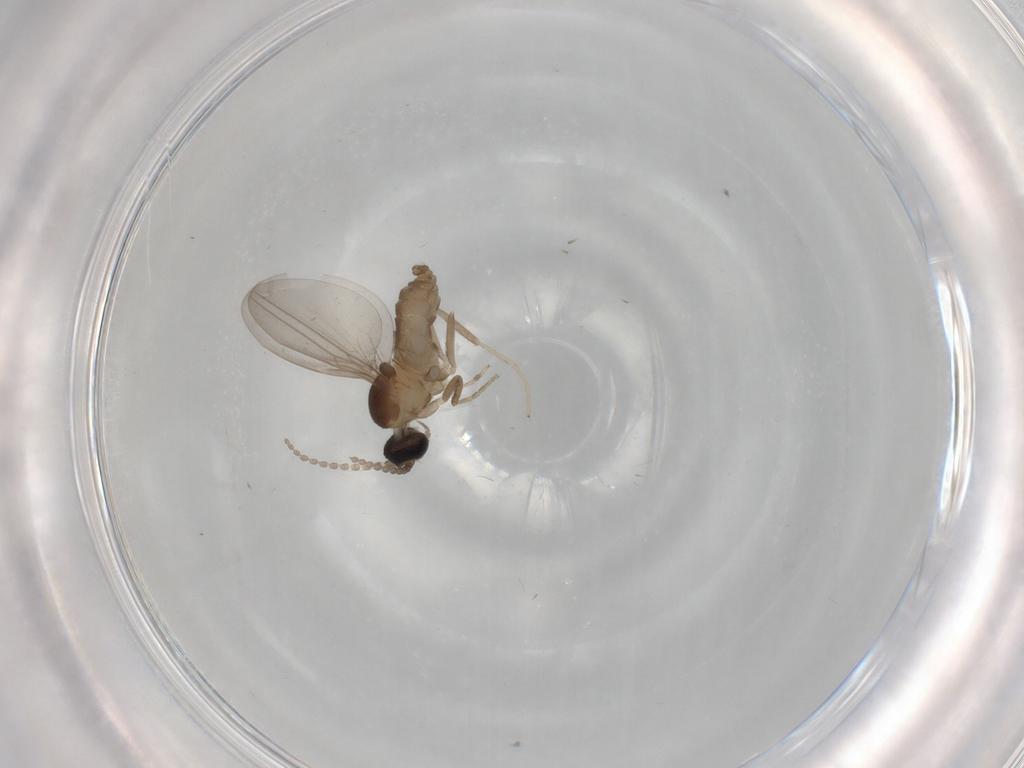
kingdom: Animalia
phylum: Arthropoda
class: Insecta
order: Diptera
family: Cecidomyiidae
